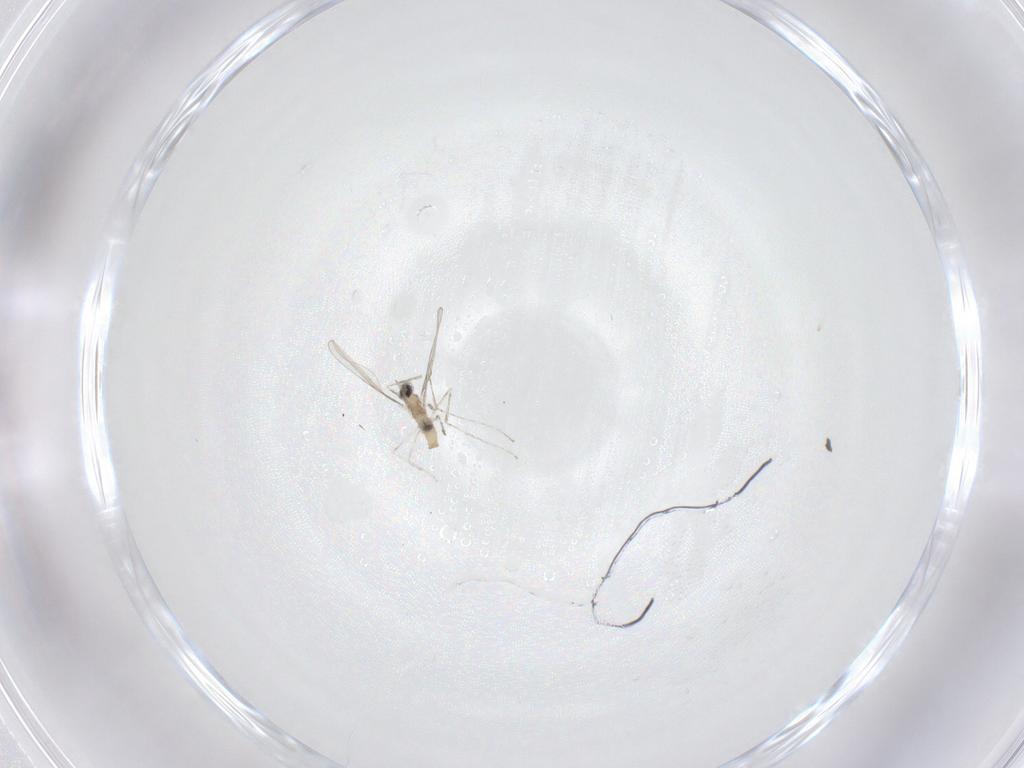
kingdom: Animalia
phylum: Arthropoda
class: Insecta
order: Diptera
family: Cecidomyiidae
